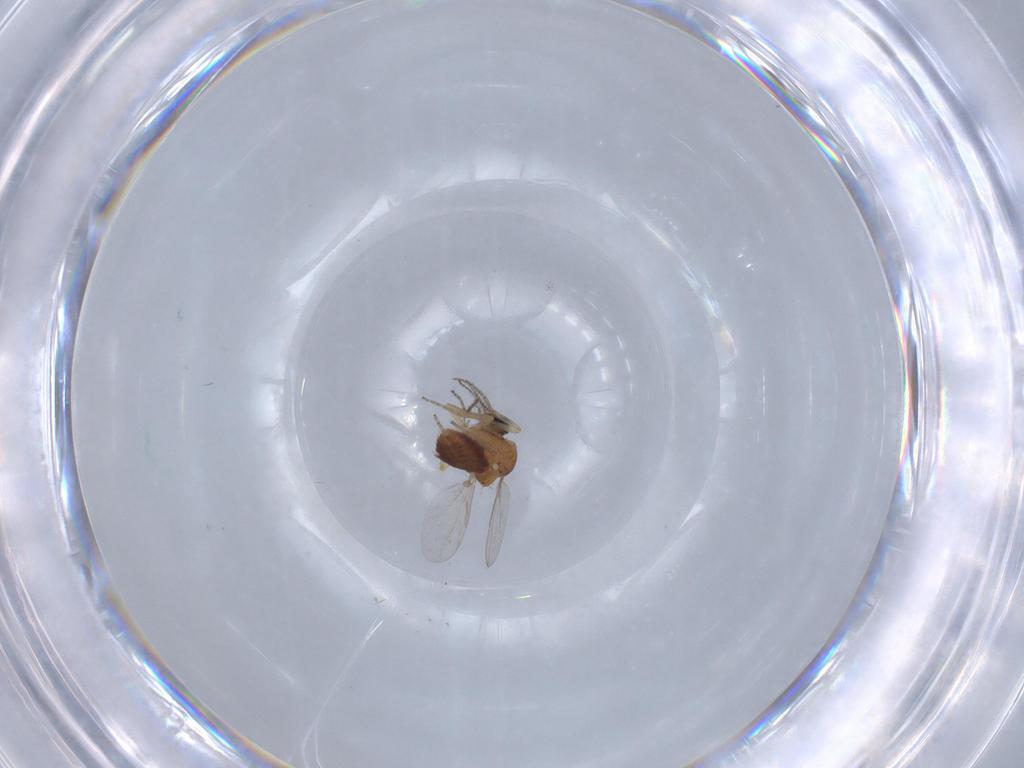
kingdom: Animalia
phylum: Arthropoda
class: Insecta
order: Diptera
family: Ceratopogonidae
